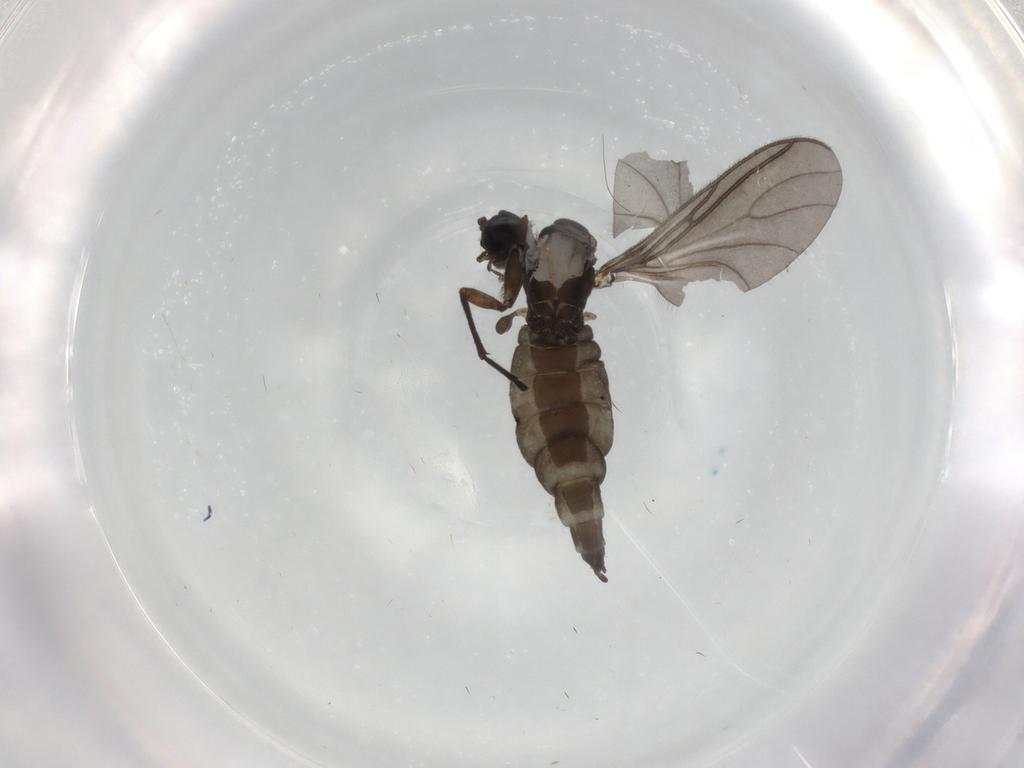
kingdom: Animalia
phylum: Arthropoda
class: Insecta
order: Diptera
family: Sciaridae
